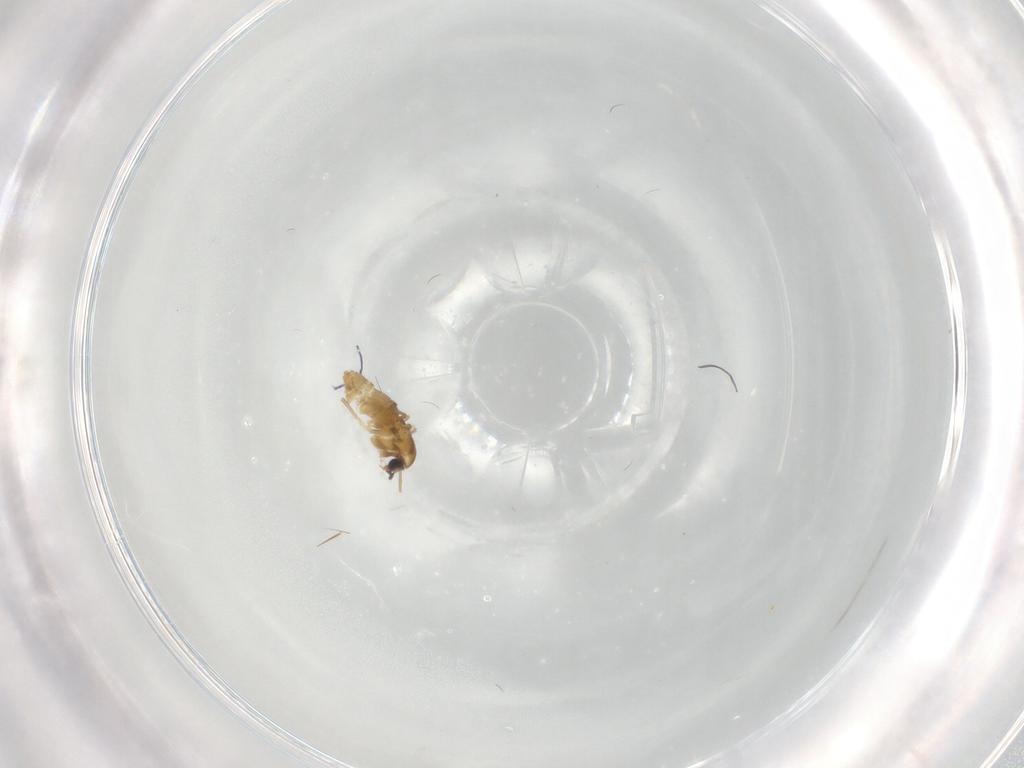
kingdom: Animalia
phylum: Arthropoda
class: Insecta
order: Diptera
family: Chironomidae
